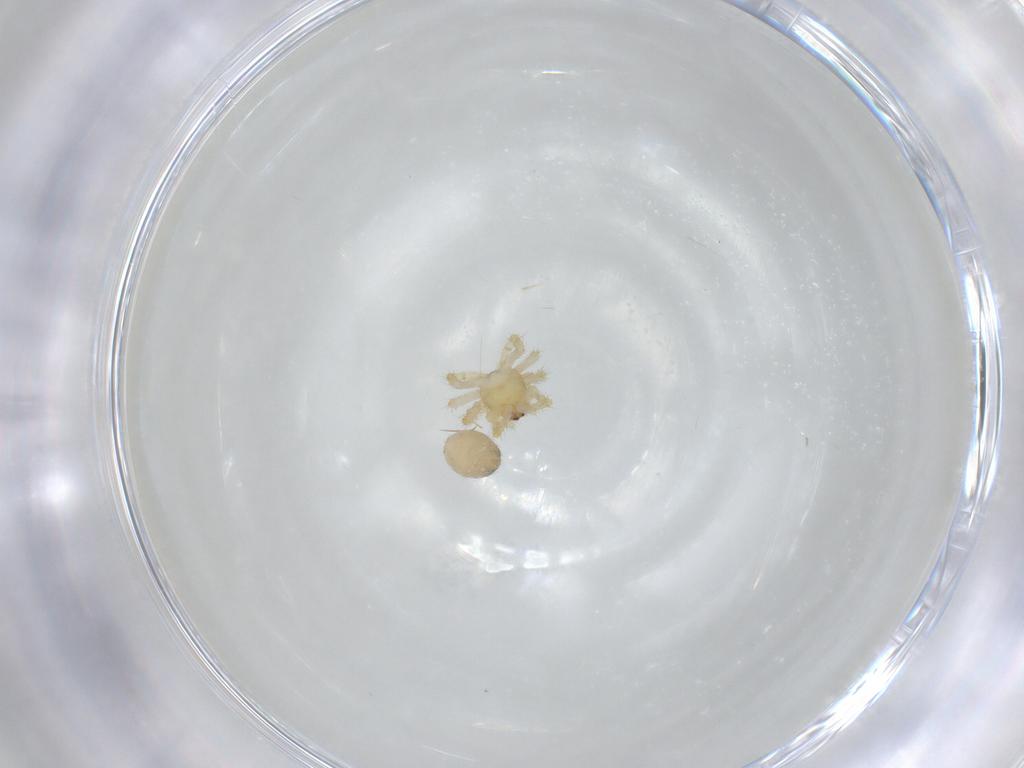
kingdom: Animalia
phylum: Arthropoda
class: Arachnida
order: Araneae
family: Theridiidae
